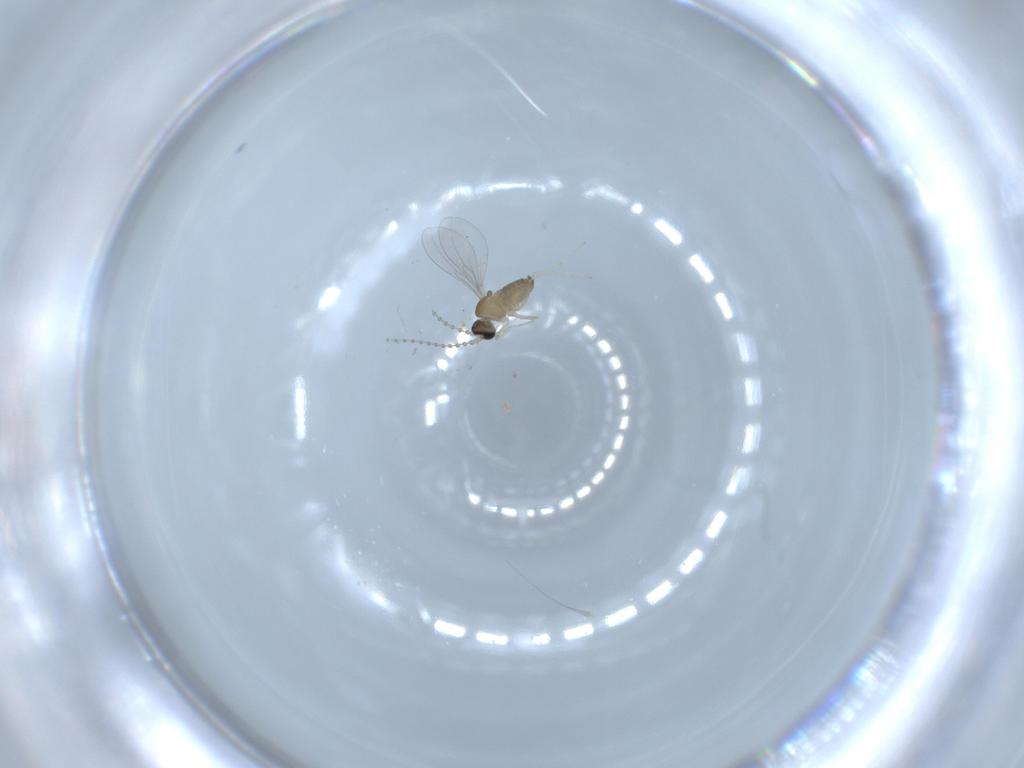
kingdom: Animalia
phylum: Arthropoda
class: Insecta
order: Diptera
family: Cecidomyiidae
